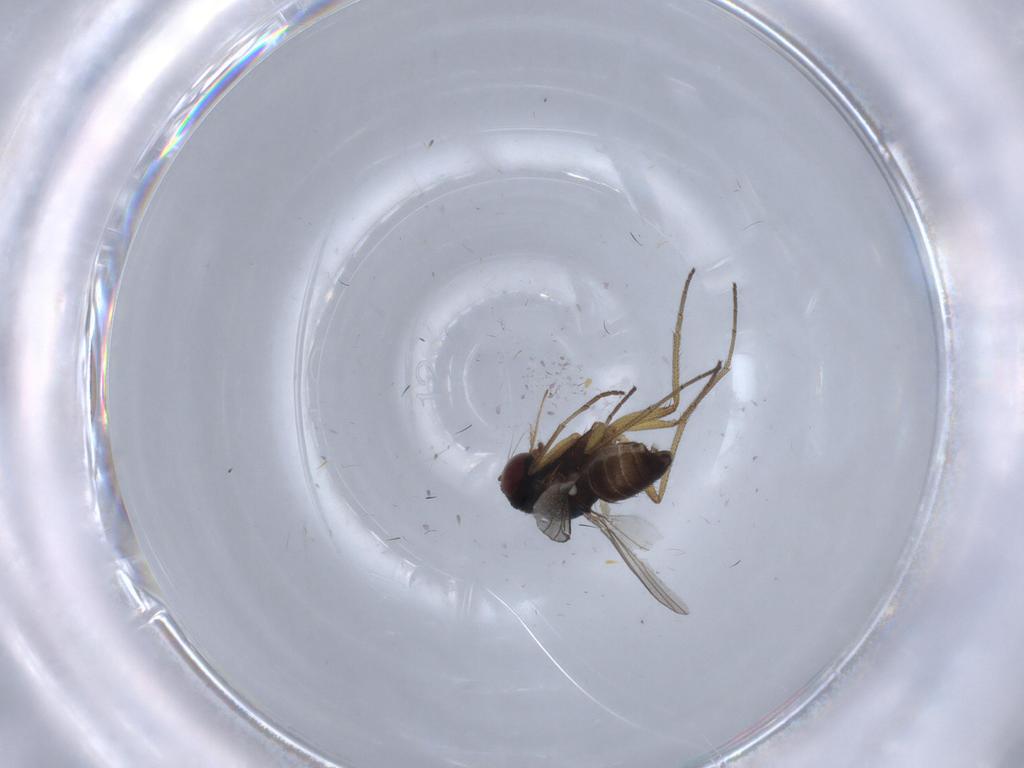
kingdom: Animalia
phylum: Arthropoda
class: Insecta
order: Diptera
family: Dolichopodidae
